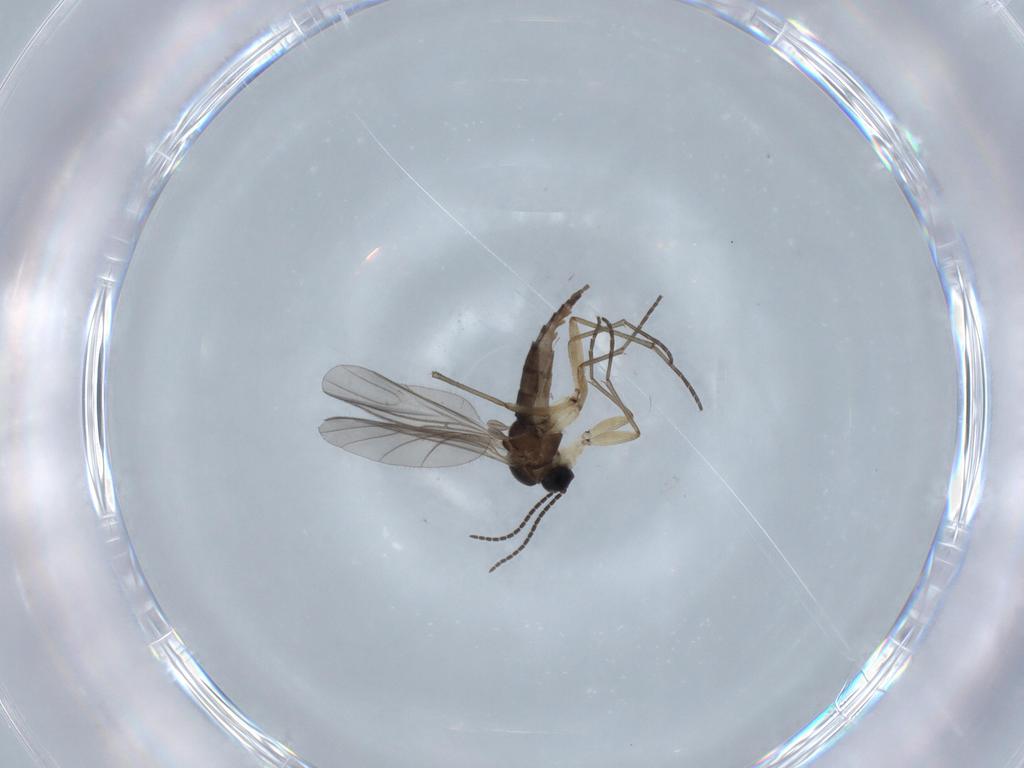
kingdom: Animalia
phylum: Arthropoda
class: Insecta
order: Diptera
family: Sciaridae
